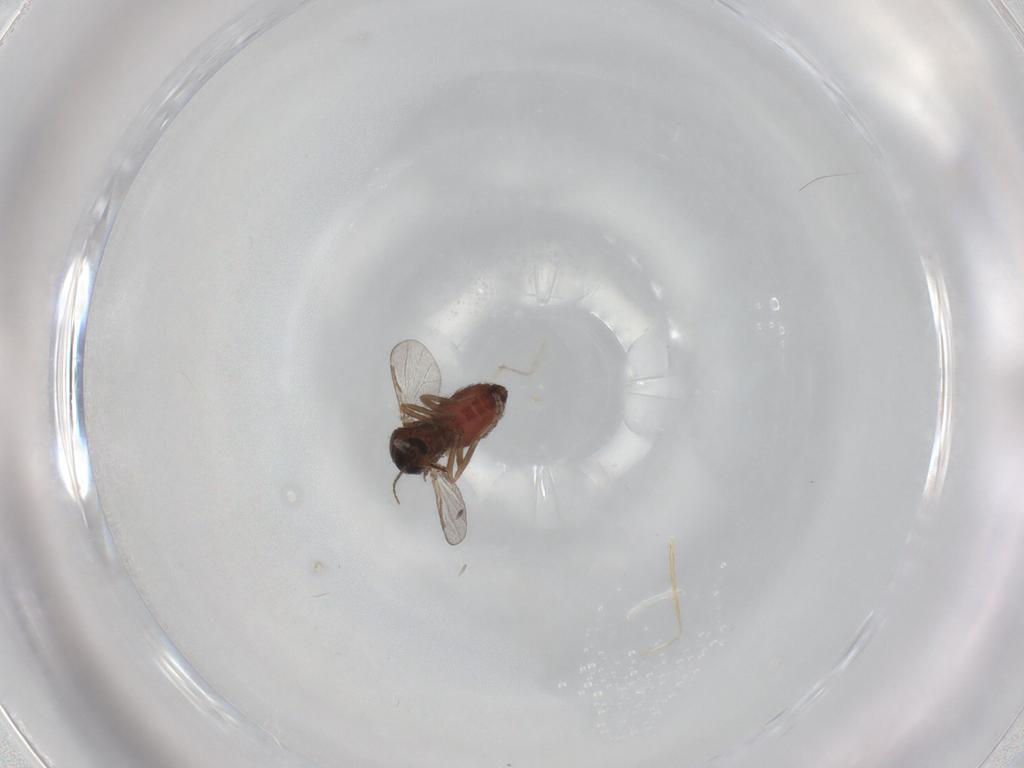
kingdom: Animalia
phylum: Arthropoda
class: Insecta
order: Diptera
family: Ceratopogonidae
